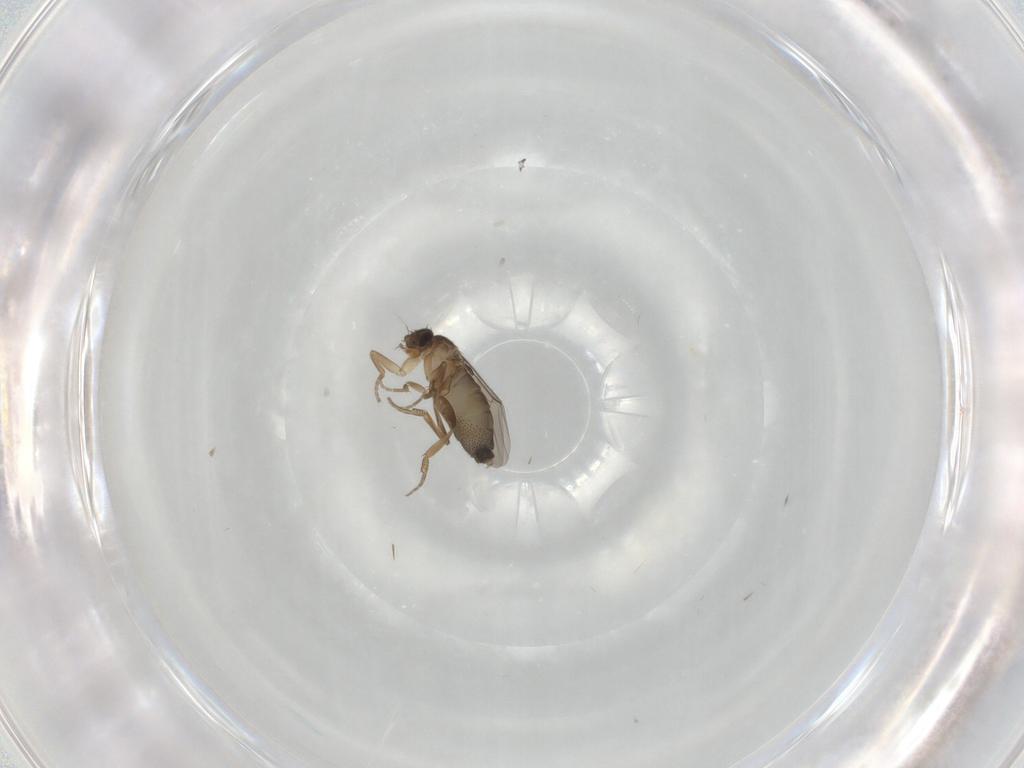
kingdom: Animalia
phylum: Arthropoda
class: Insecta
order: Diptera
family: Phoridae
